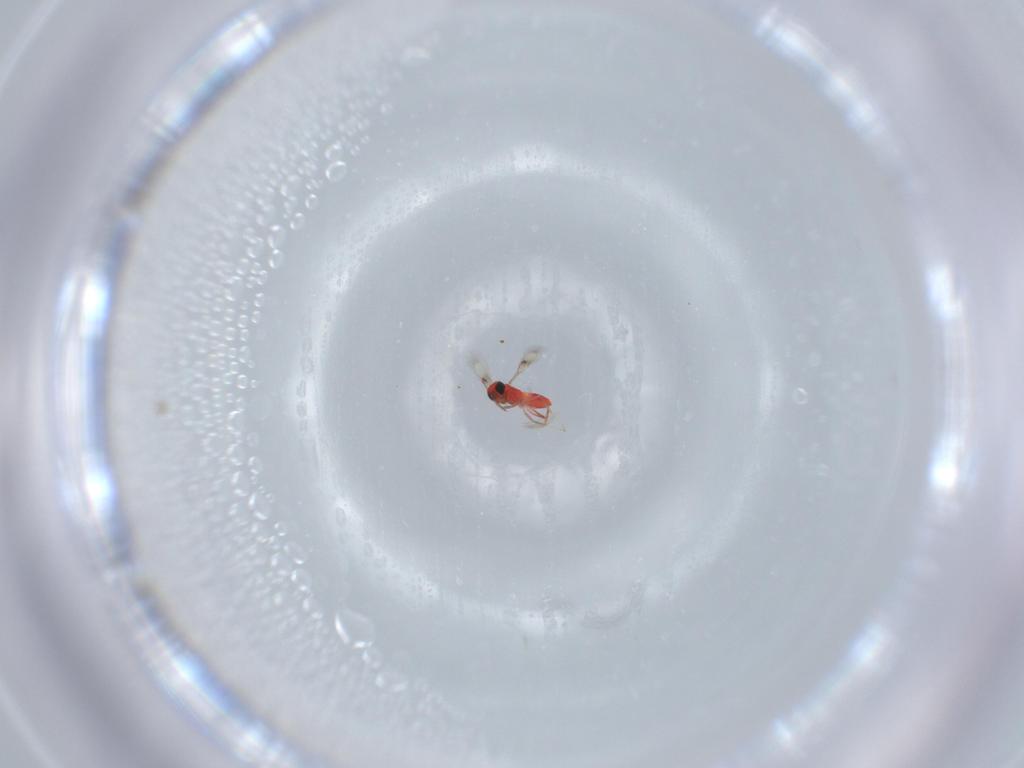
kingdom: Animalia
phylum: Arthropoda
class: Insecta
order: Hymenoptera
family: Trichogrammatidae
